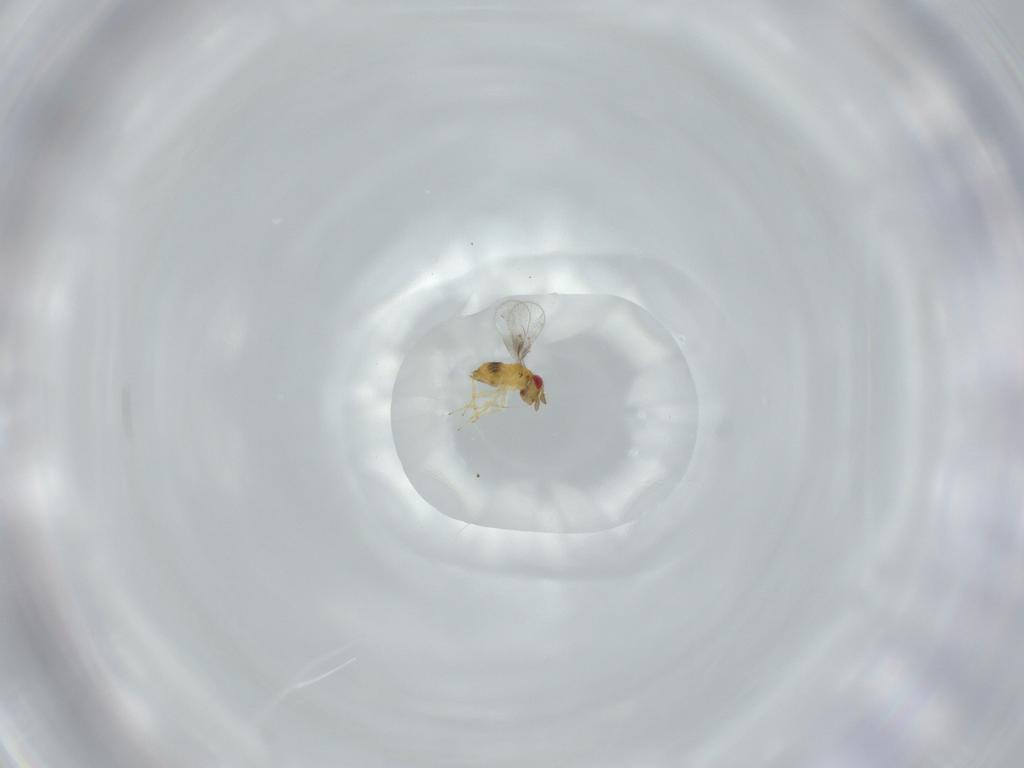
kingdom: Animalia
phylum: Arthropoda
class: Insecta
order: Hymenoptera
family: Trichogrammatidae
